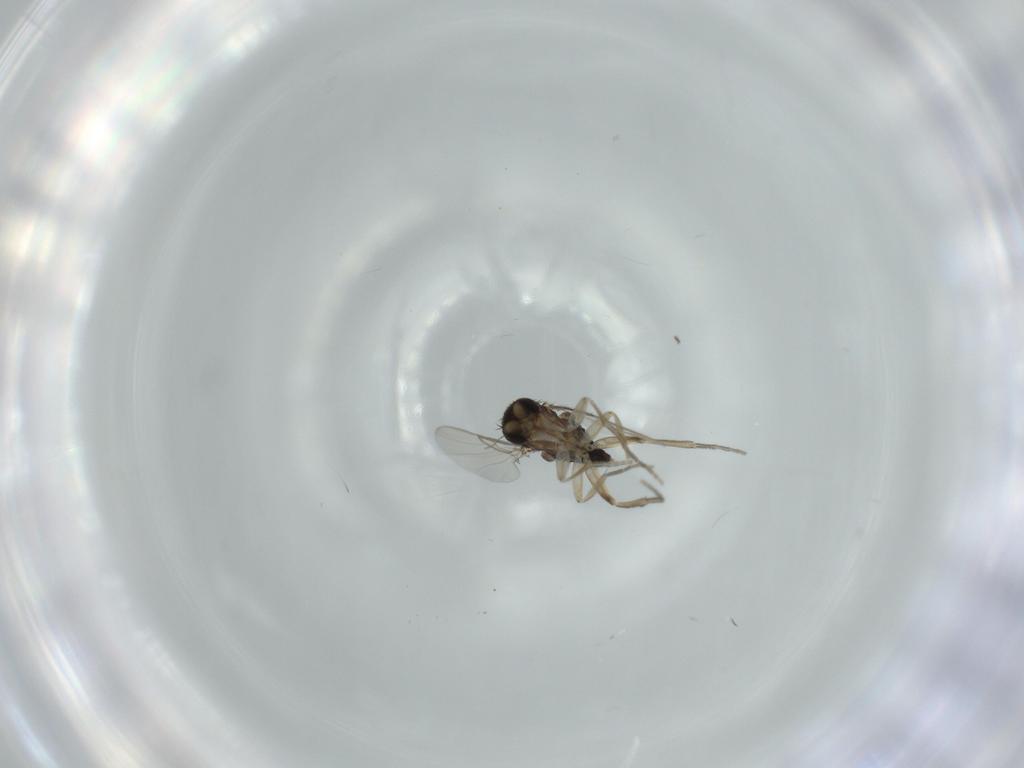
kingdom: Animalia
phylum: Arthropoda
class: Insecta
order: Diptera
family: Phoridae
